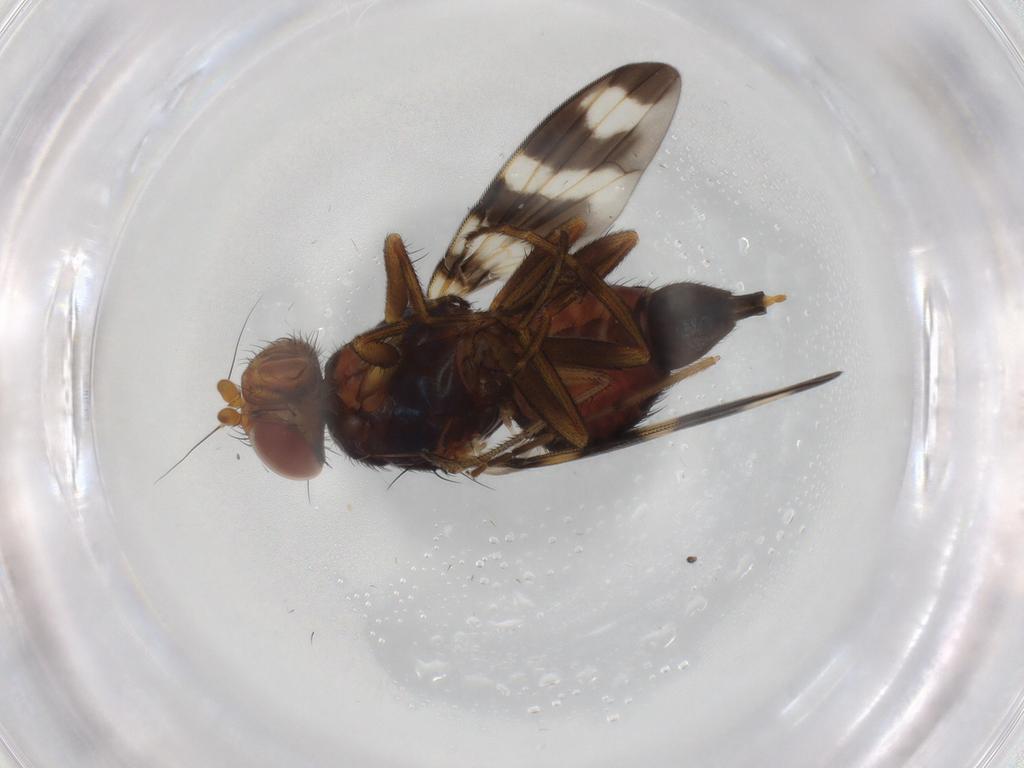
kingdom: Animalia
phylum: Arthropoda
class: Insecta
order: Diptera
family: Dolichopodidae
